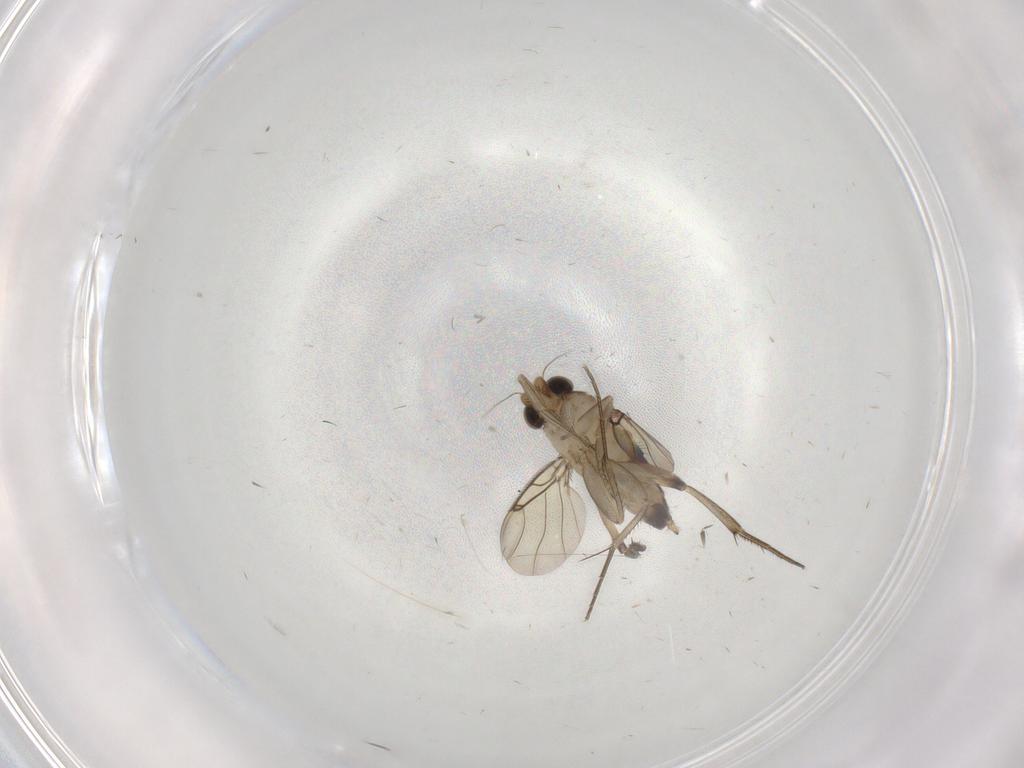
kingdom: Animalia
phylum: Arthropoda
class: Insecta
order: Diptera
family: Phoridae
